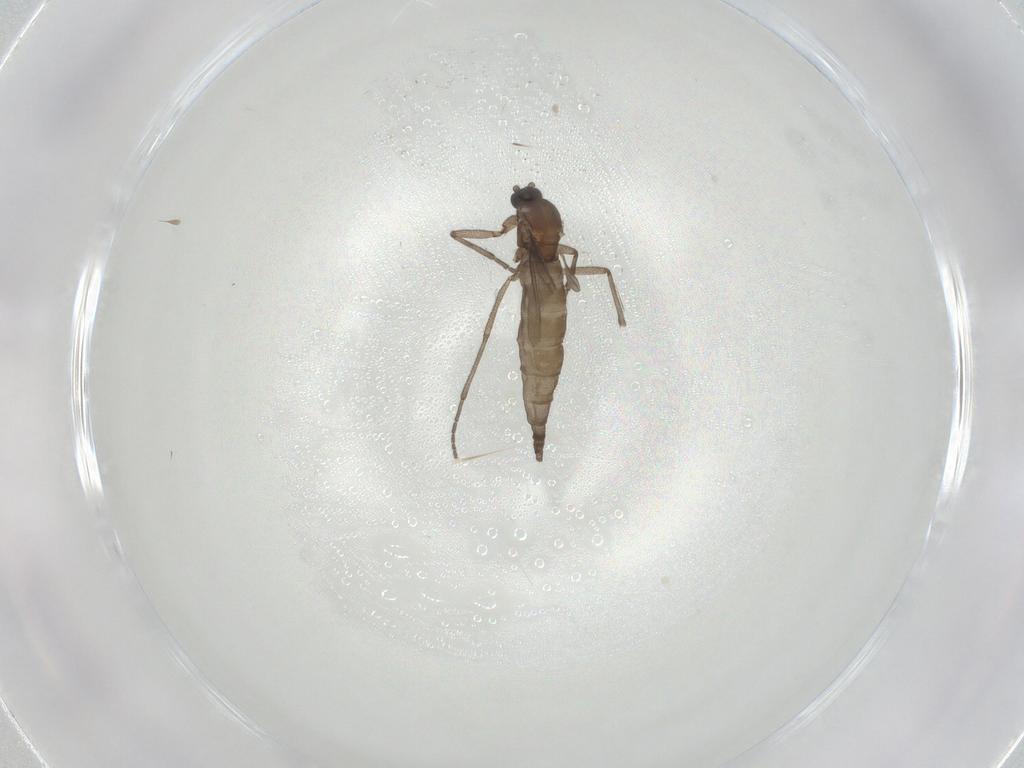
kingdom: Animalia
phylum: Arthropoda
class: Insecta
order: Diptera
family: Sciaridae
